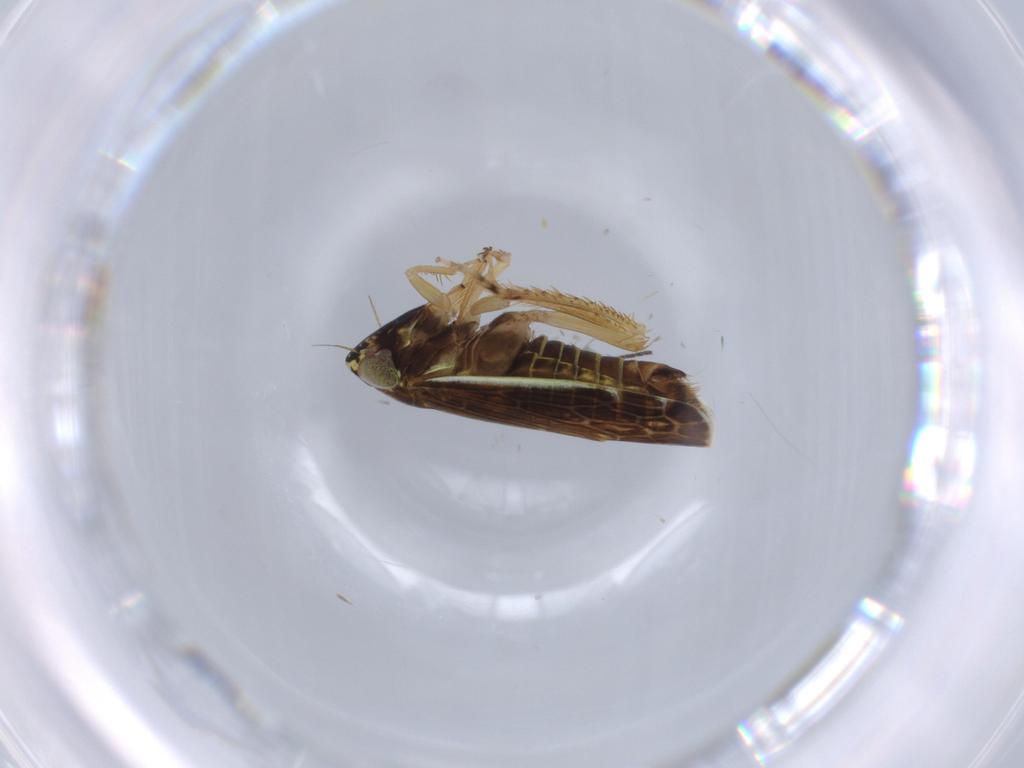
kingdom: Animalia
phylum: Arthropoda
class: Insecta
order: Hemiptera
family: Cicadellidae
